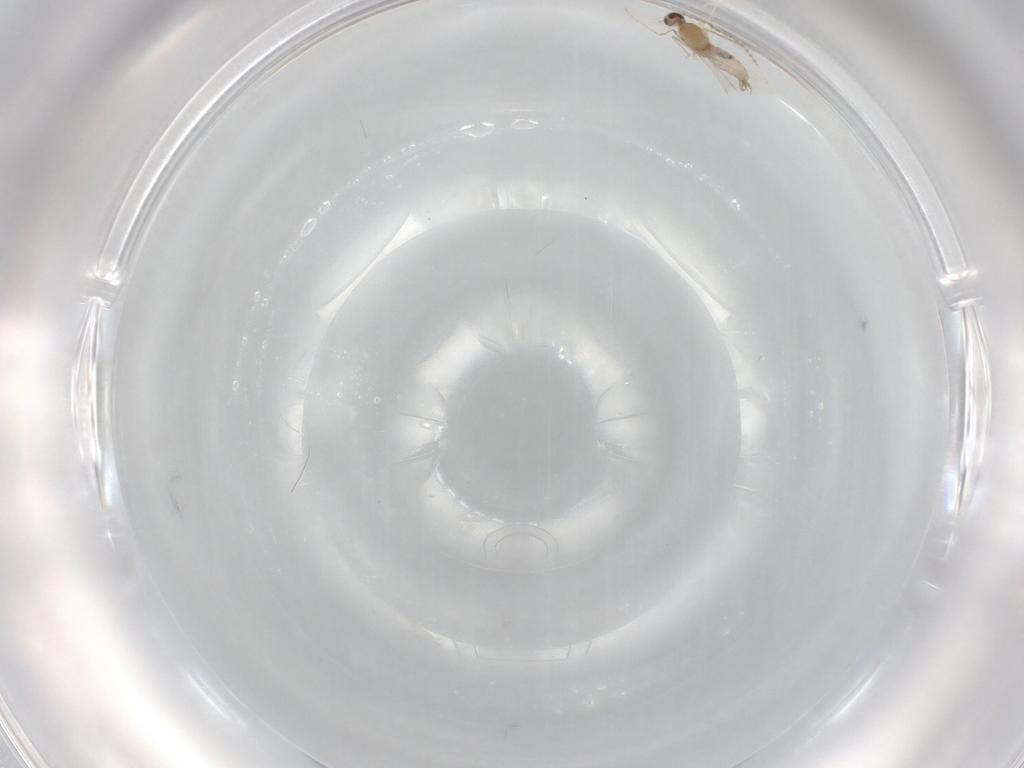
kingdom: Animalia
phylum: Arthropoda
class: Insecta
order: Diptera
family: Cecidomyiidae
